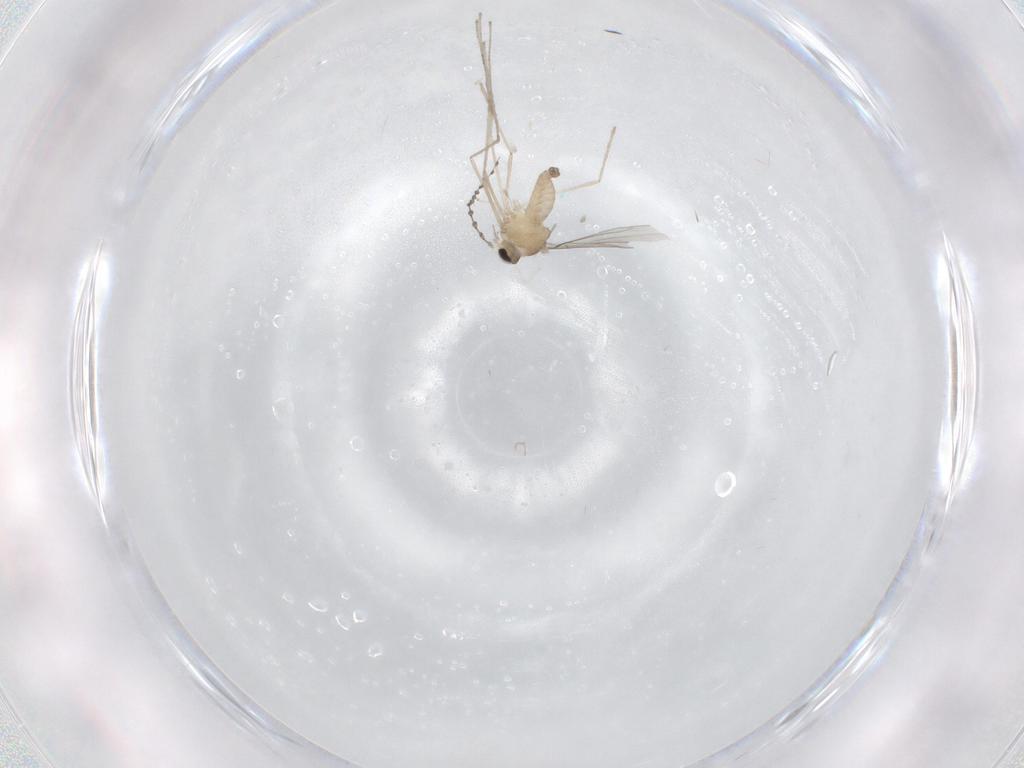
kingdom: Animalia
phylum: Arthropoda
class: Insecta
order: Diptera
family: Cecidomyiidae
